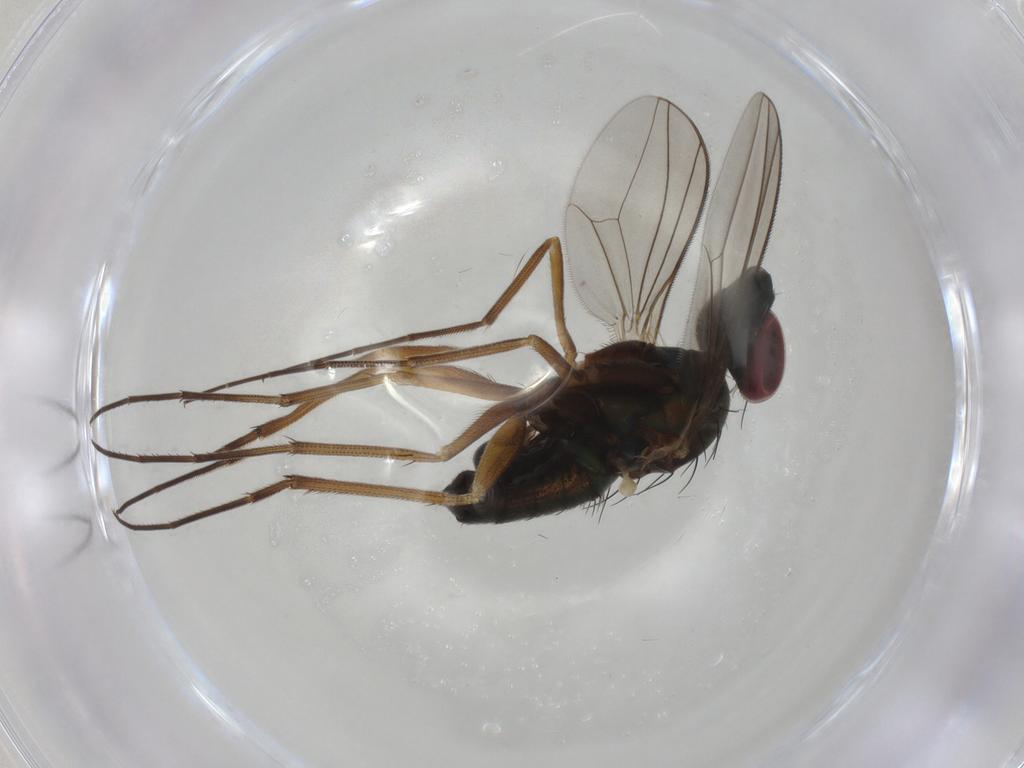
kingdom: Animalia
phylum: Arthropoda
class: Insecta
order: Diptera
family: Dolichopodidae
